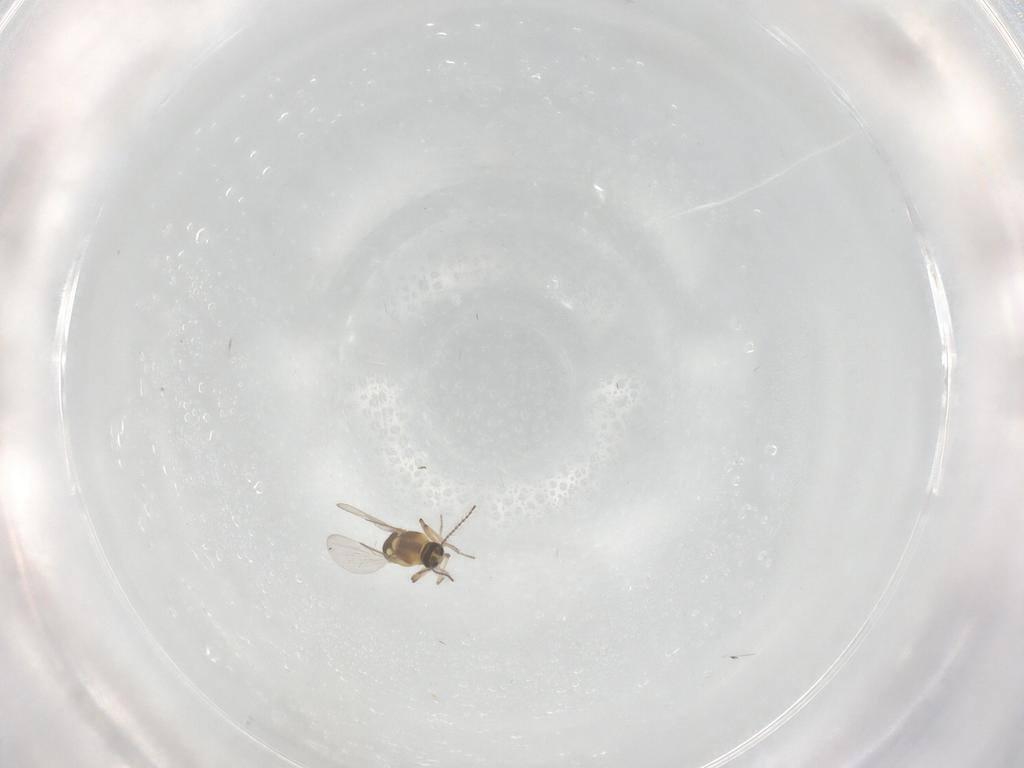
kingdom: Animalia
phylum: Arthropoda
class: Insecta
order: Diptera
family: Ceratopogonidae
